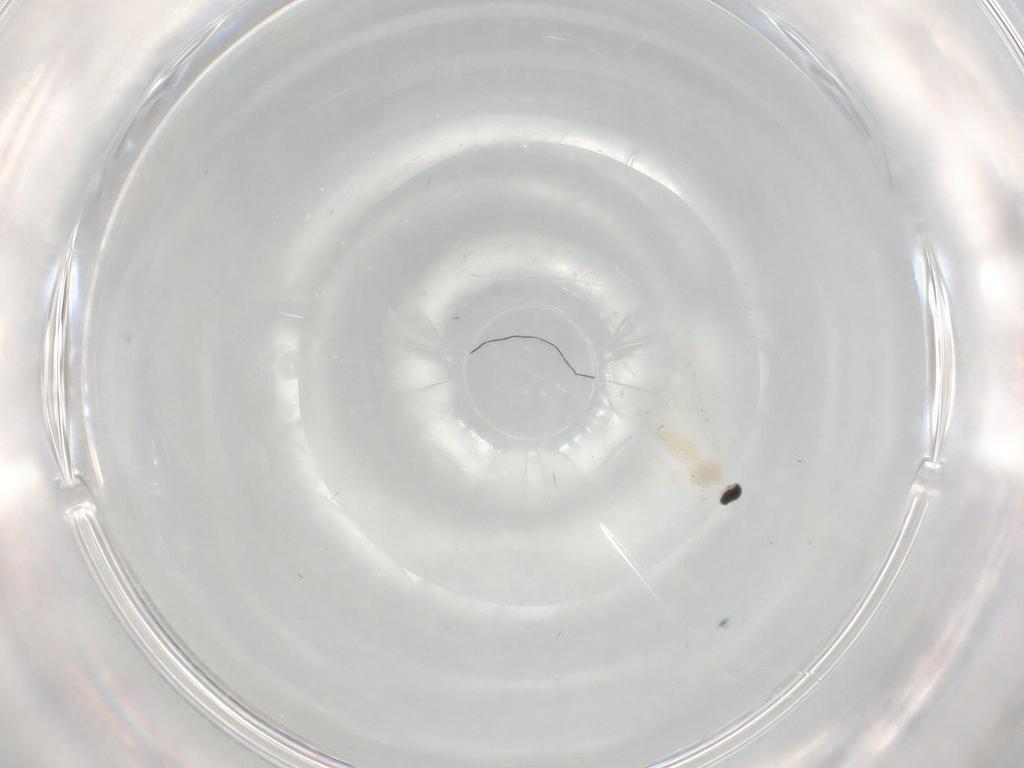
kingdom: Animalia
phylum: Arthropoda
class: Insecta
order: Diptera
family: Cecidomyiidae
